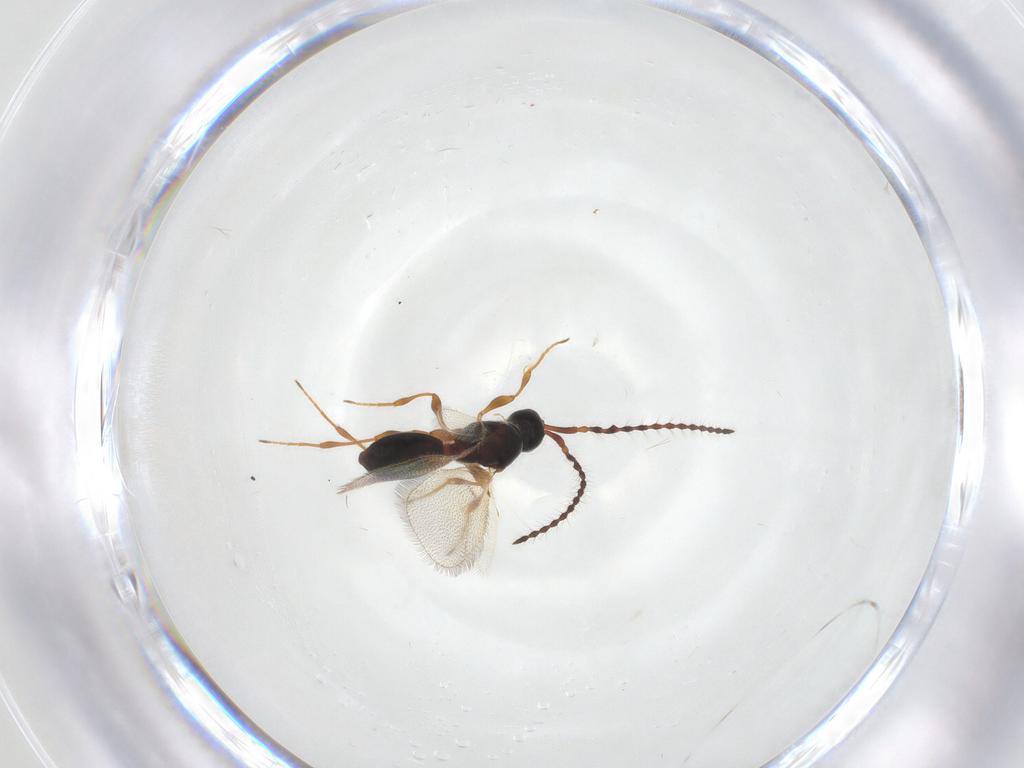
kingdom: Animalia
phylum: Arthropoda
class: Insecta
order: Hymenoptera
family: Diapriidae
